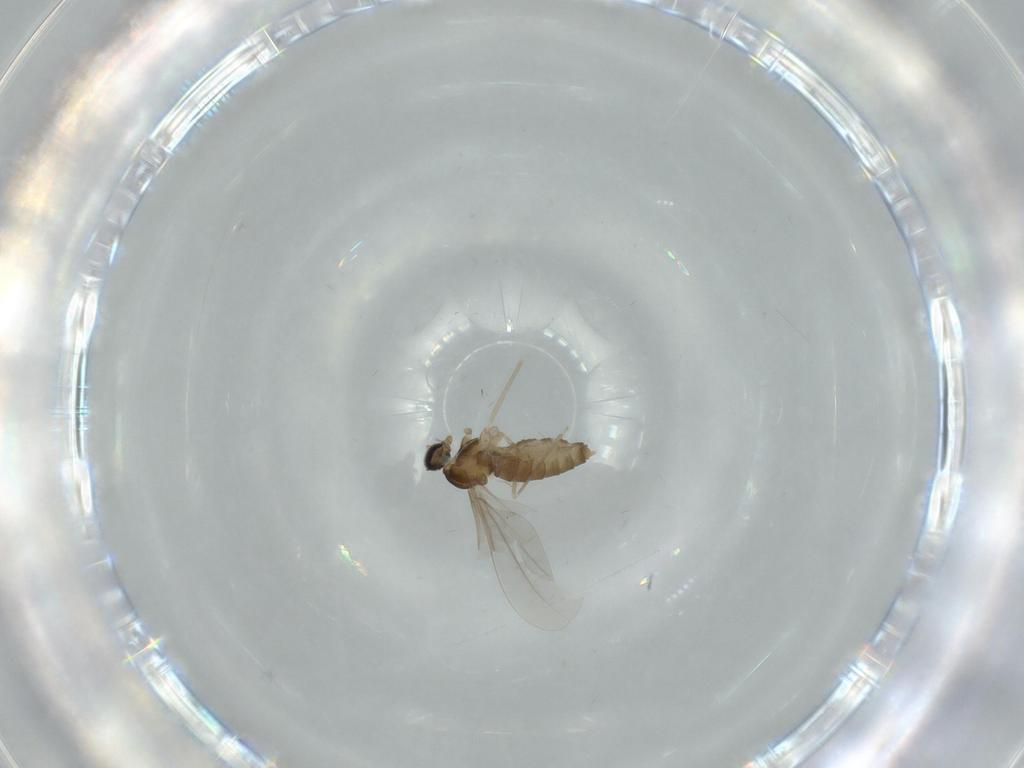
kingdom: Animalia
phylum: Arthropoda
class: Insecta
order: Diptera
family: Cecidomyiidae
